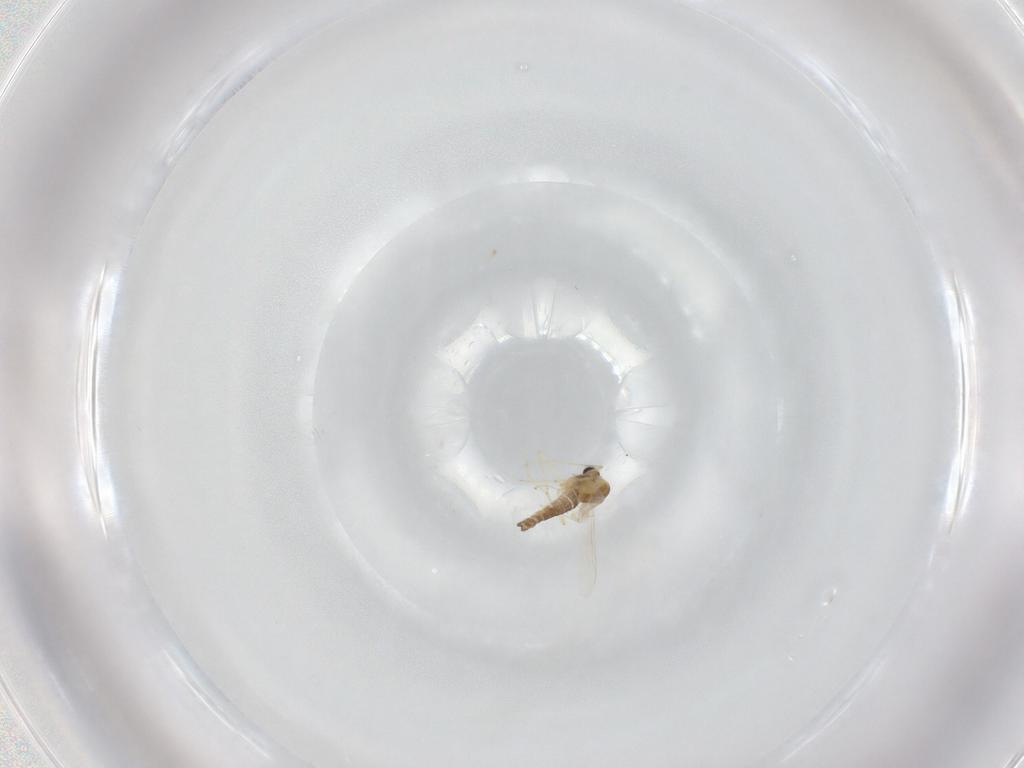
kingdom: Animalia
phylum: Arthropoda
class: Insecta
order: Diptera
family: Chironomidae
